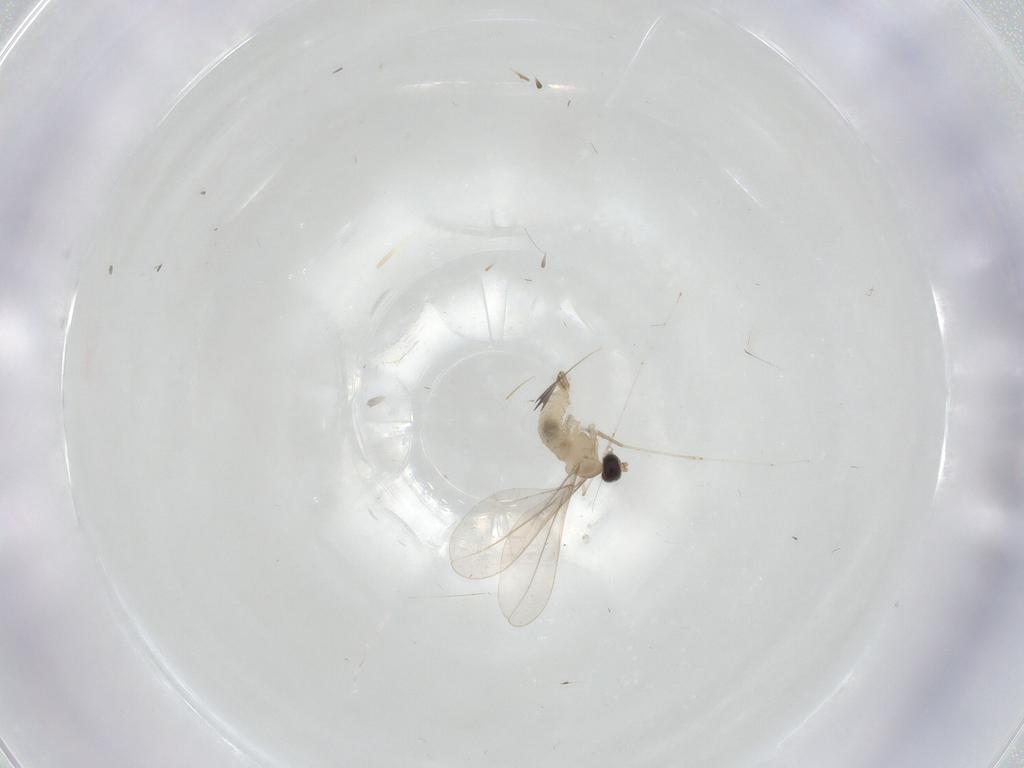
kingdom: Animalia
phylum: Arthropoda
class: Insecta
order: Diptera
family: Cecidomyiidae
